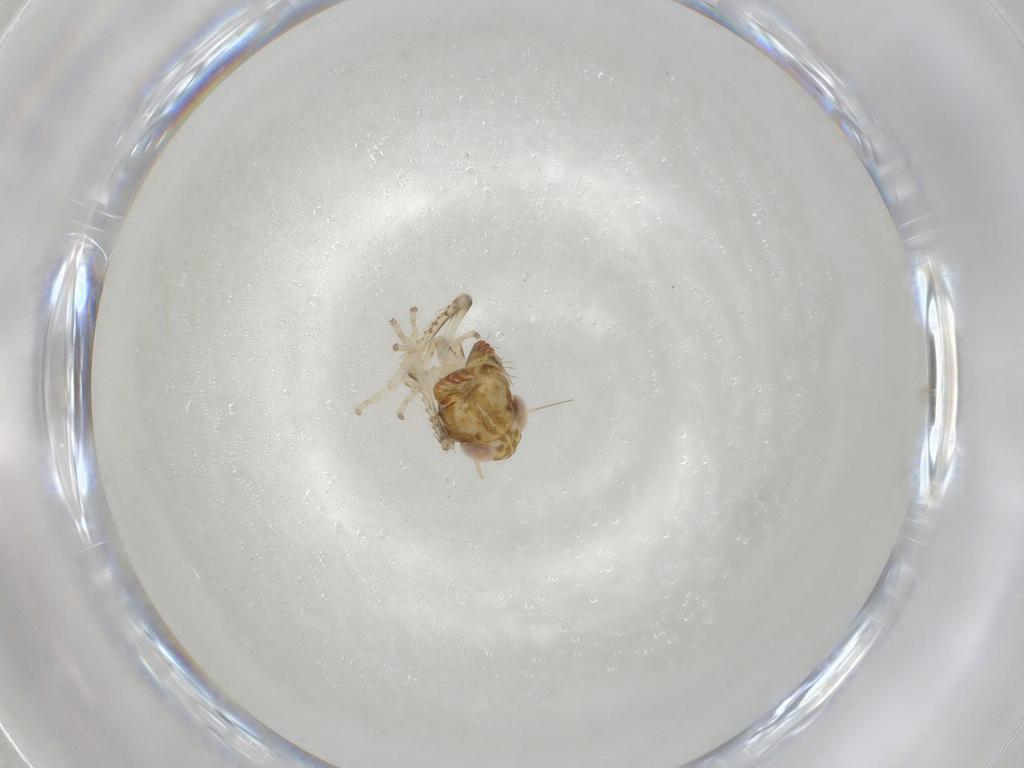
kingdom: Animalia
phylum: Arthropoda
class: Insecta
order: Hemiptera
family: Cicadellidae
